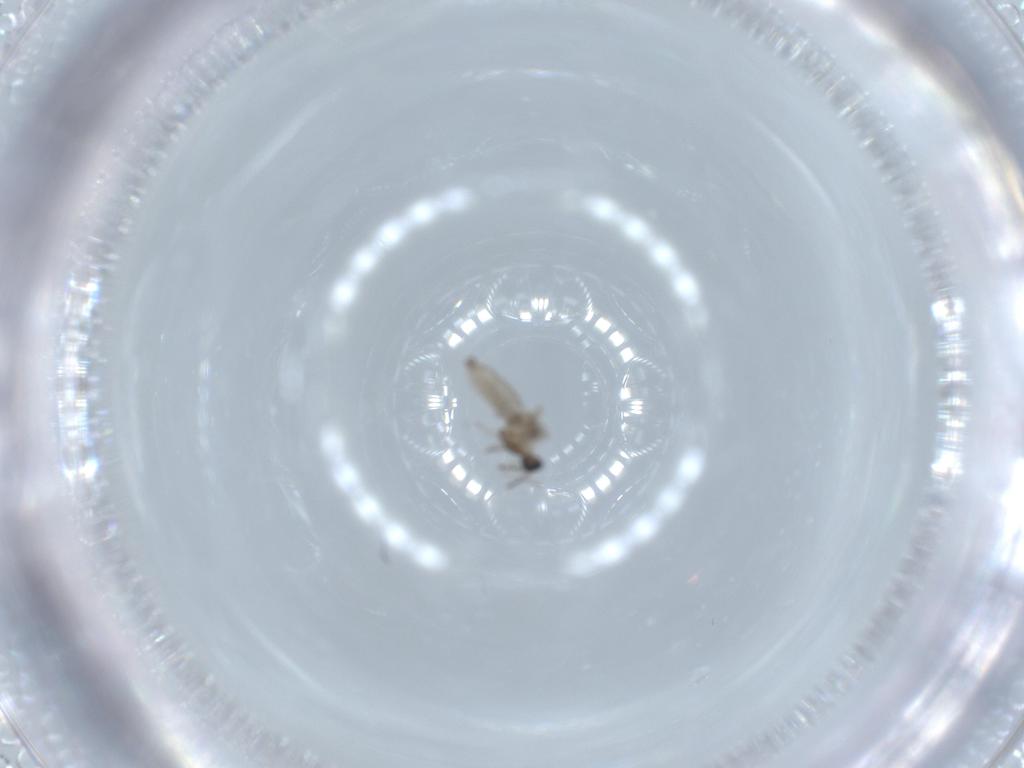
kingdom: Animalia
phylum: Arthropoda
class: Insecta
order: Diptera
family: Cecidomyiidae
